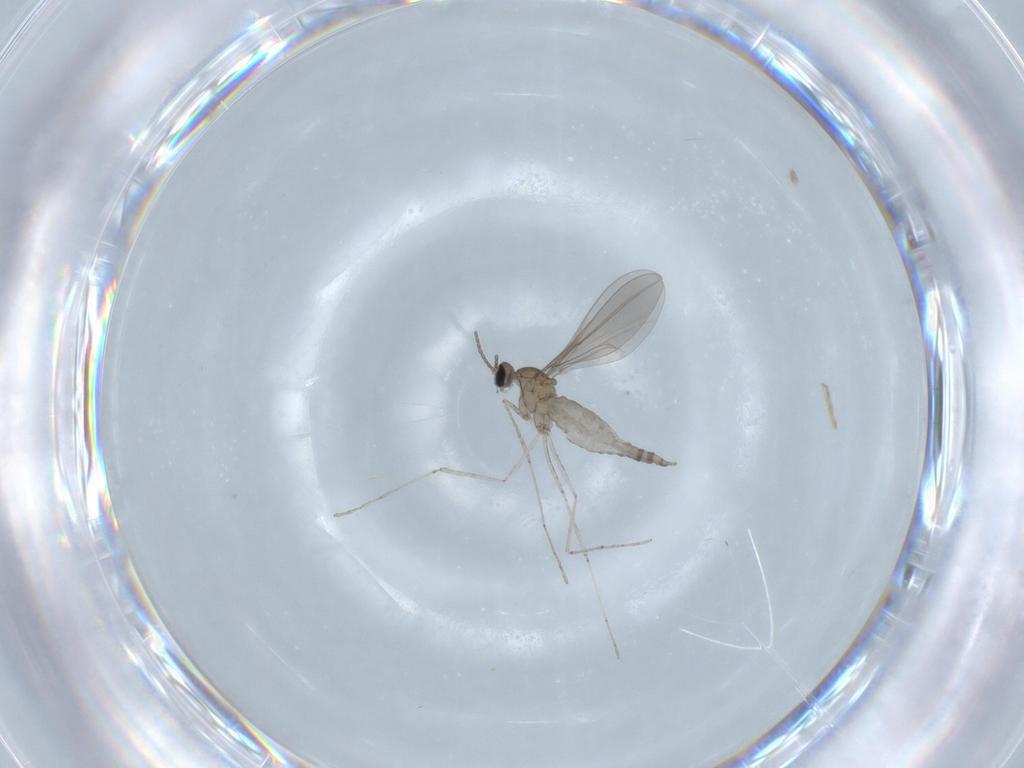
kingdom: Animalia
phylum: Arthropoda
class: Insecta
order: Diptera
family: Cecidomyiidae
